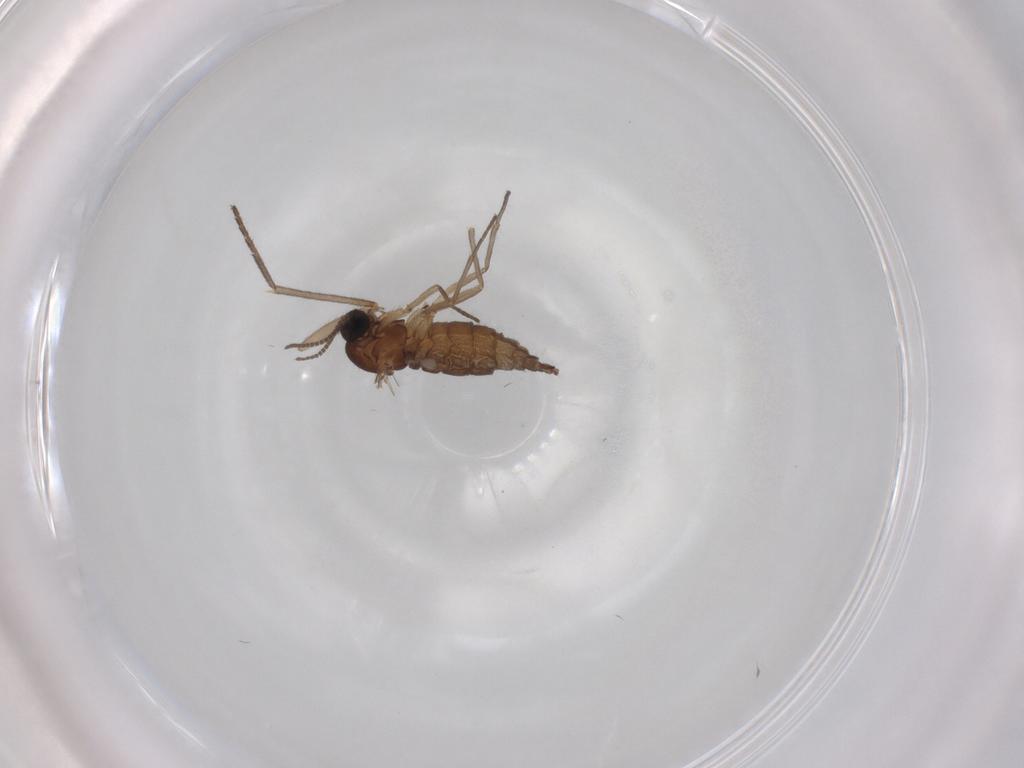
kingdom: Animalia
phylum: Arthropoda
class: Insecta
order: Diptera
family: Sciaridae
